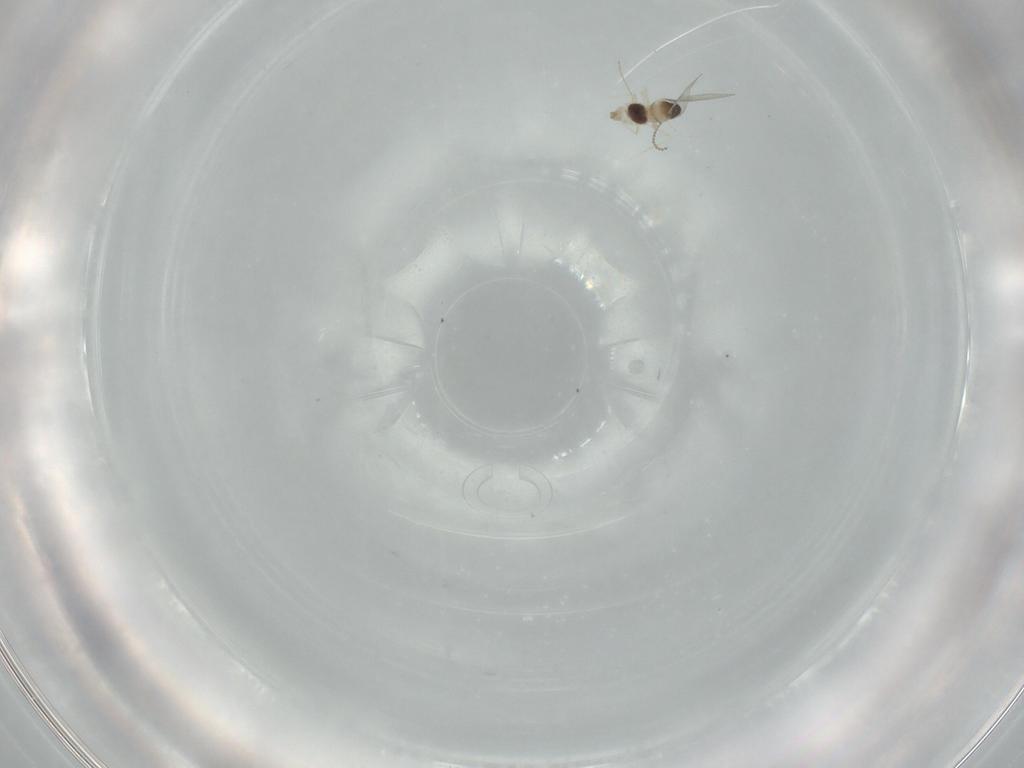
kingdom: Animalia
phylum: Arthropoda
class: Insecta
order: Diptera
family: Cecidomyiidae
